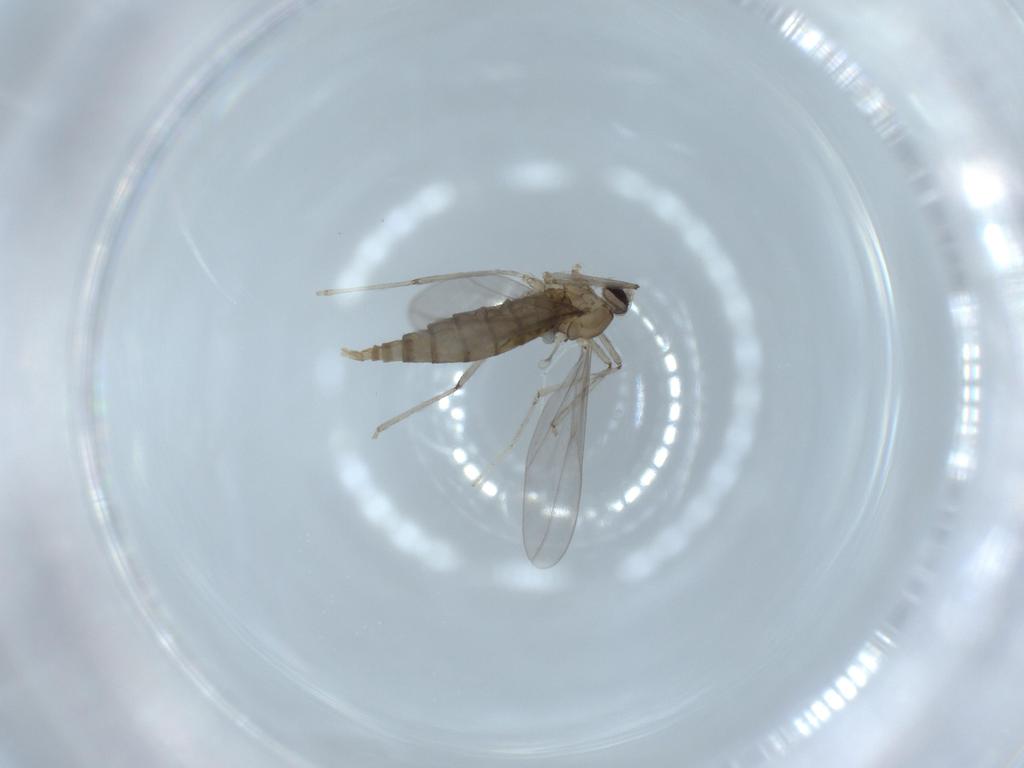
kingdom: Animalia
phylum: Arthropoda
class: Insecta
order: Diptera
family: Cecidomyiidae
